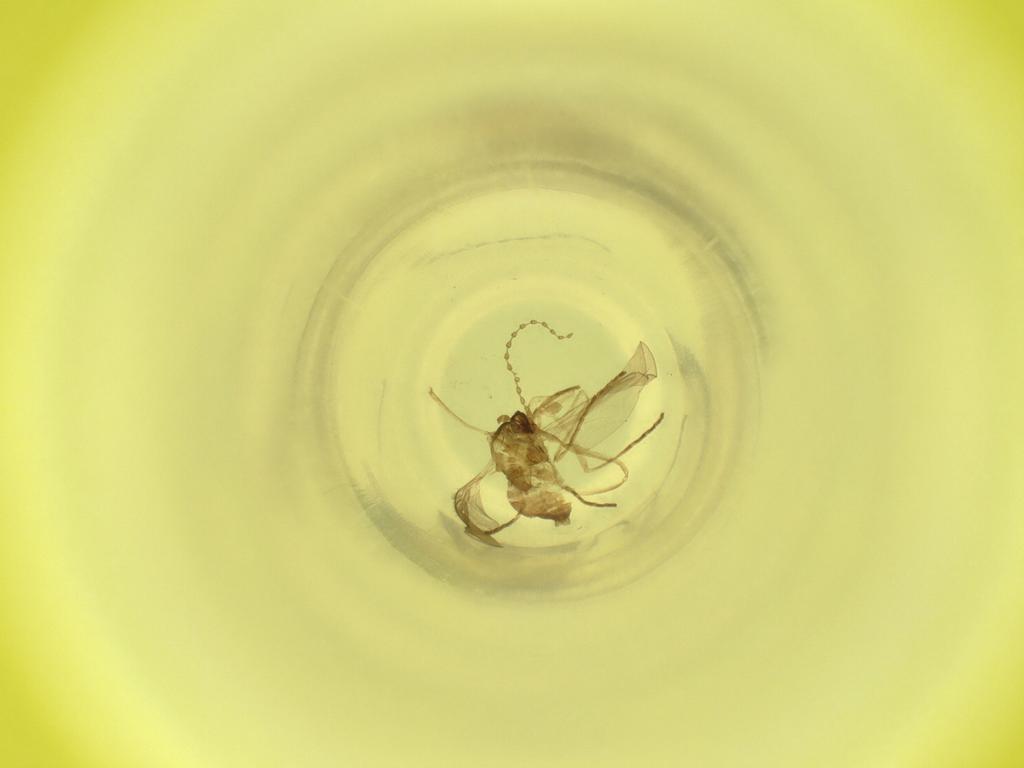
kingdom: Animalia
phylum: Arthropoda
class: Insecta
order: Diptera
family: Cecidomyiidae
